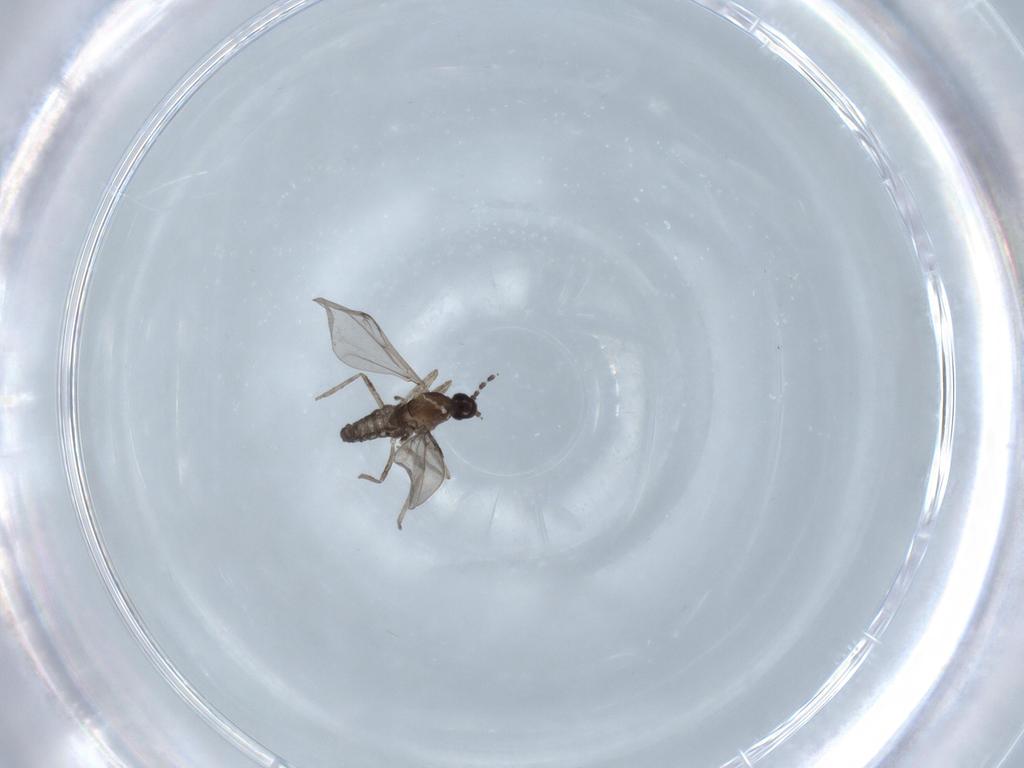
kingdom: Animalia
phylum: Arthropoda
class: Insecta
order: Diptera
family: Cecidomyiidae
